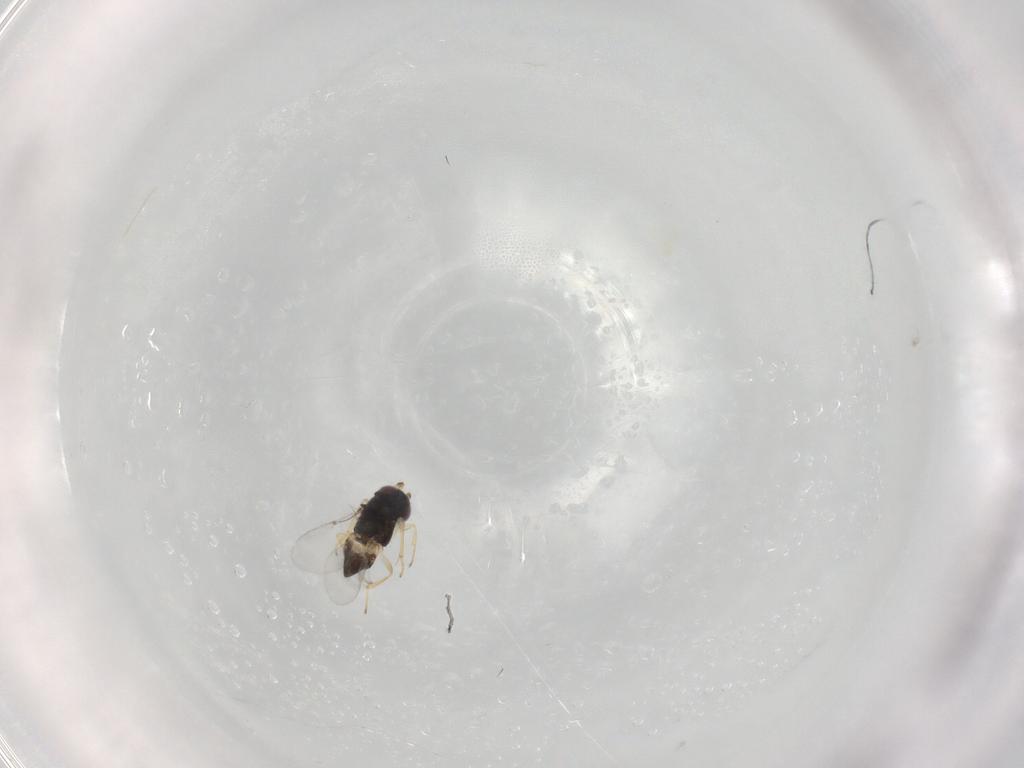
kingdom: Animalia
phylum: Arthropoda
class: Insecta
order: Hymenoptera
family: Braconidae
